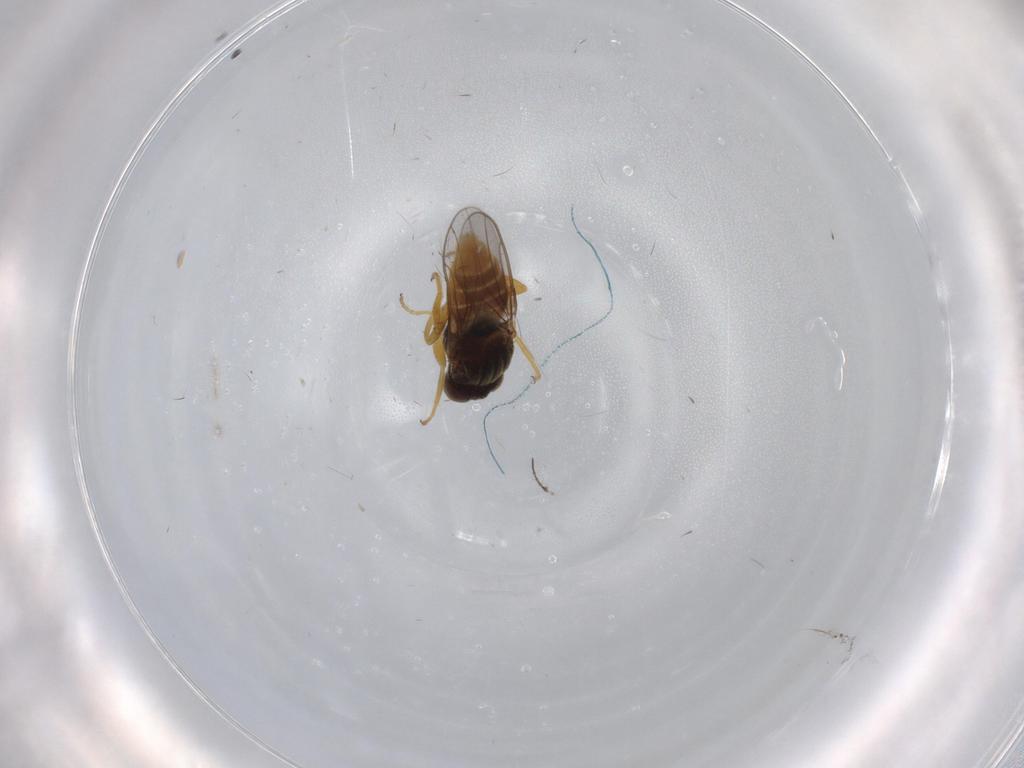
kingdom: Animalia
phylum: Arthropoda
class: Insecta
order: Diptera
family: Chloropidae
